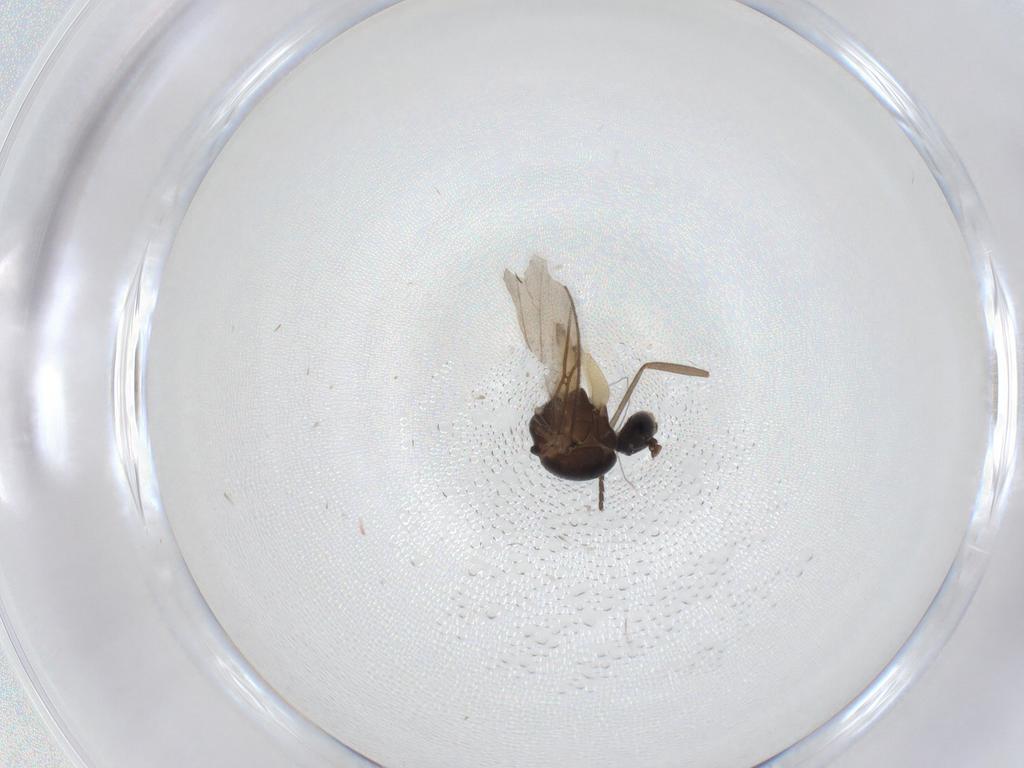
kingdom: Animalia
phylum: Arthropoda
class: Insecta
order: Diptera
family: Sciaridae
